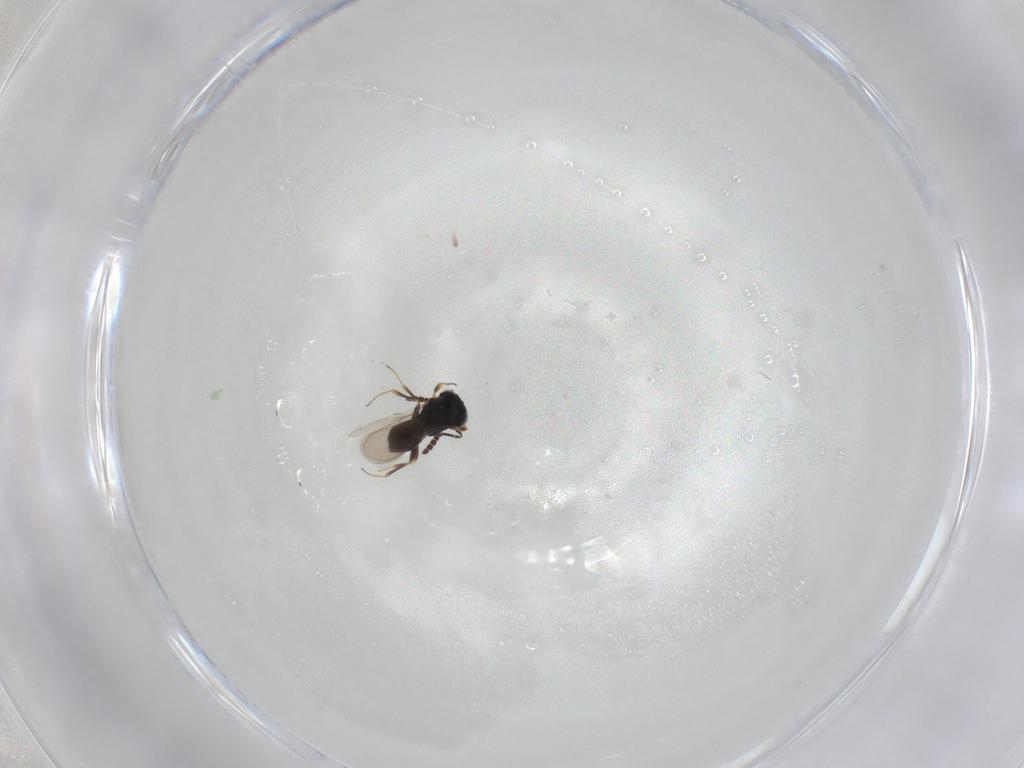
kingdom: Animalia
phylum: Arthropoda
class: Insecta
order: Hymenoptera
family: Scelionidae
